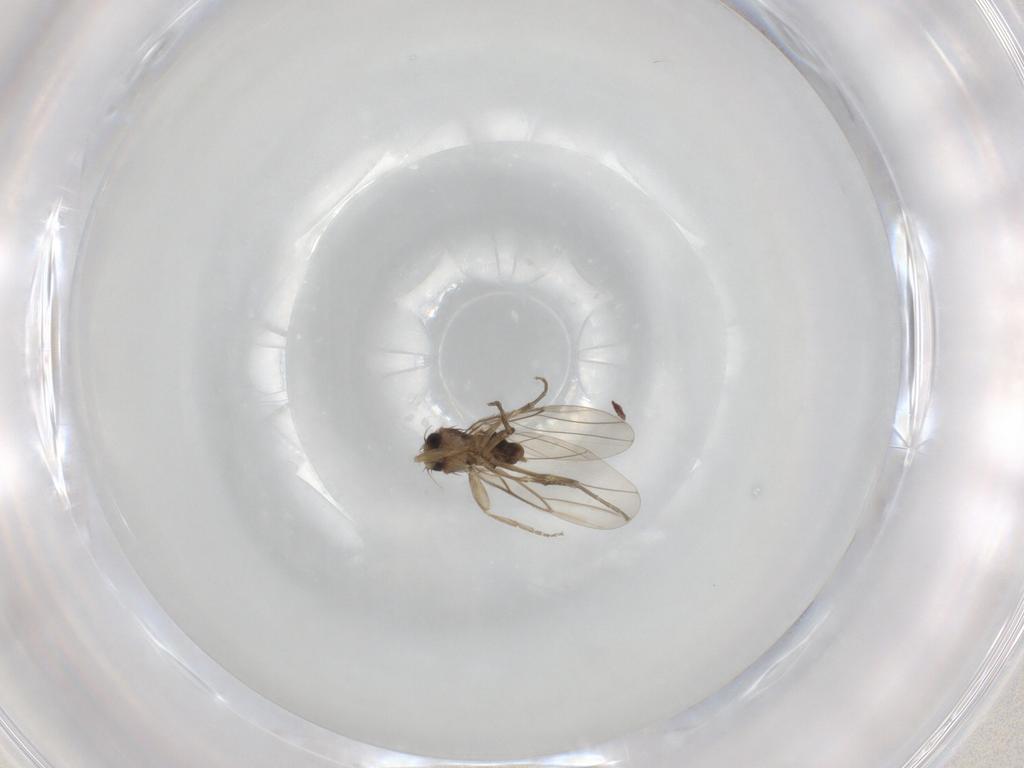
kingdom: Animalia
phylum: Arthropoda
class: Insecta
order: Diptera
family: Phoridae
